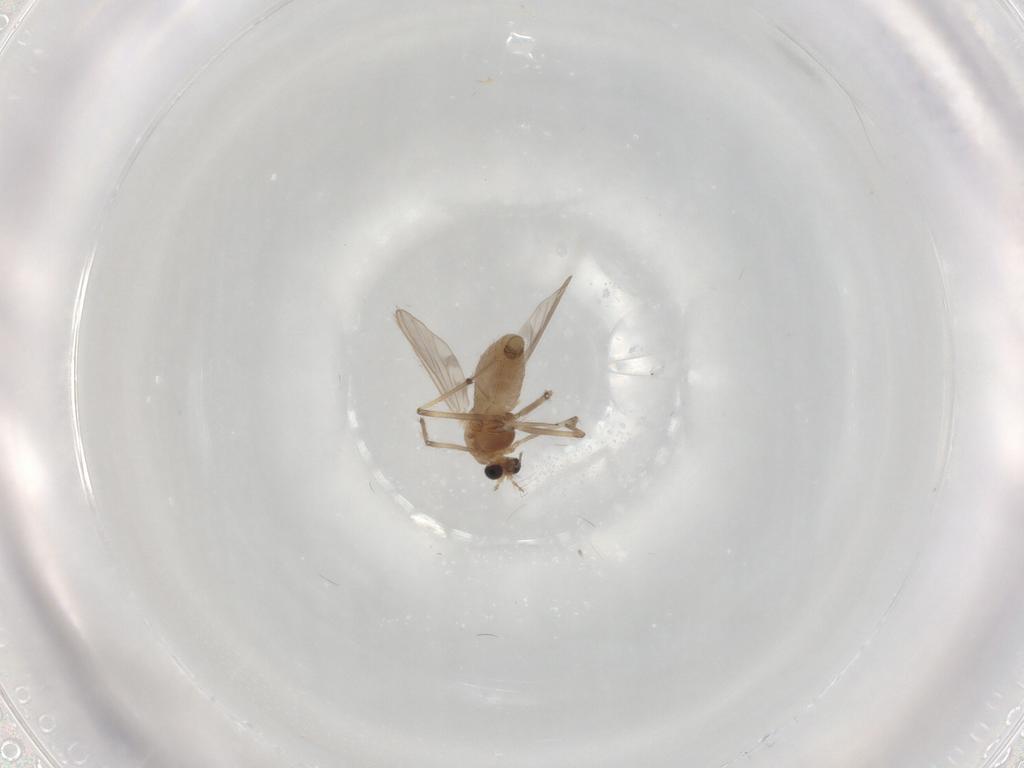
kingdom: Animalia
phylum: Arthropoda
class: Insecta
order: Diptera
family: Chironomidae
